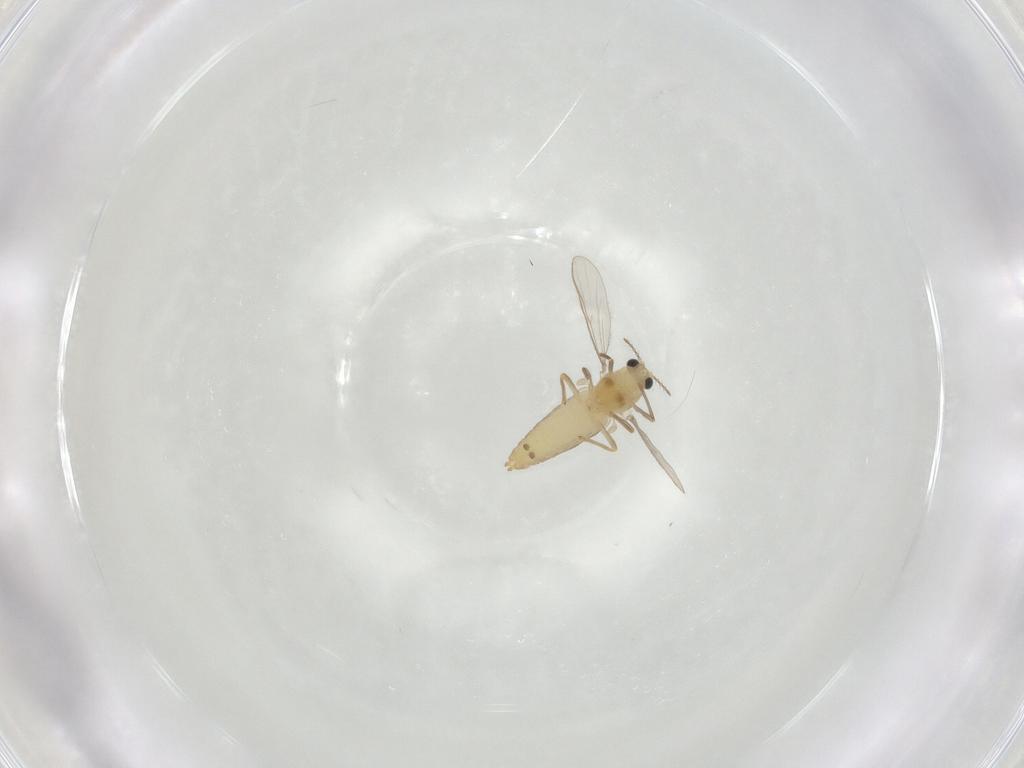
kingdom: Animalia
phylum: Arthropoda
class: Insecta
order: Diptera
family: Chironomidae
